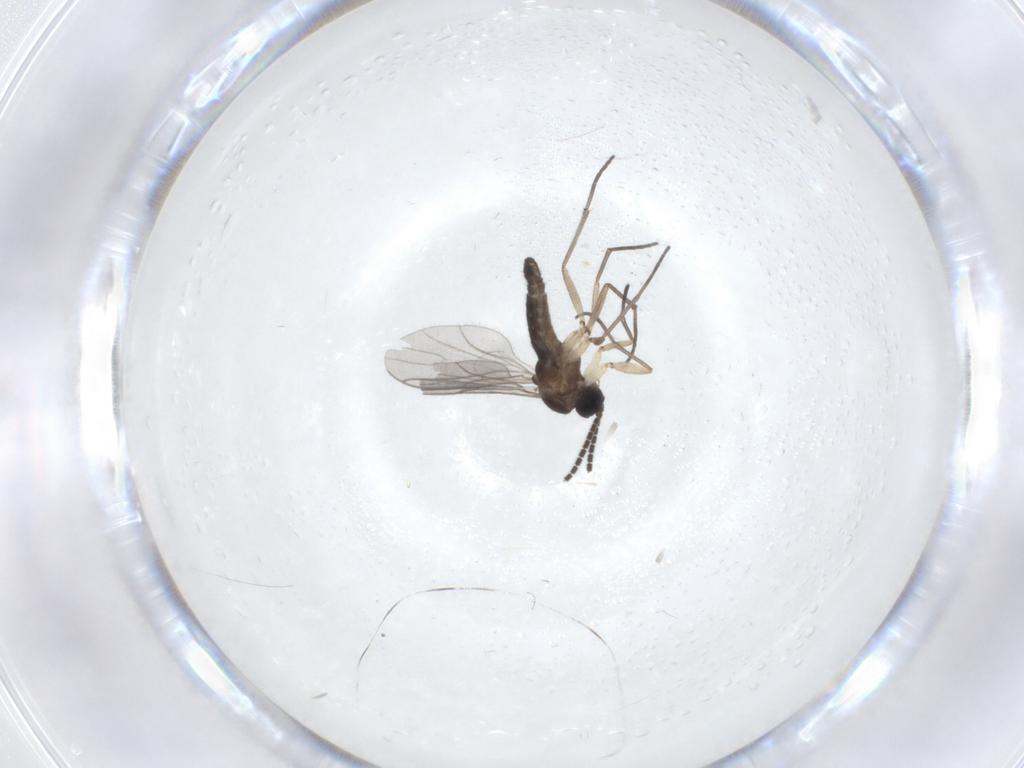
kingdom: Animalia
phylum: Arthropoda
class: Insecta
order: Diptera
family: Sciaridae
